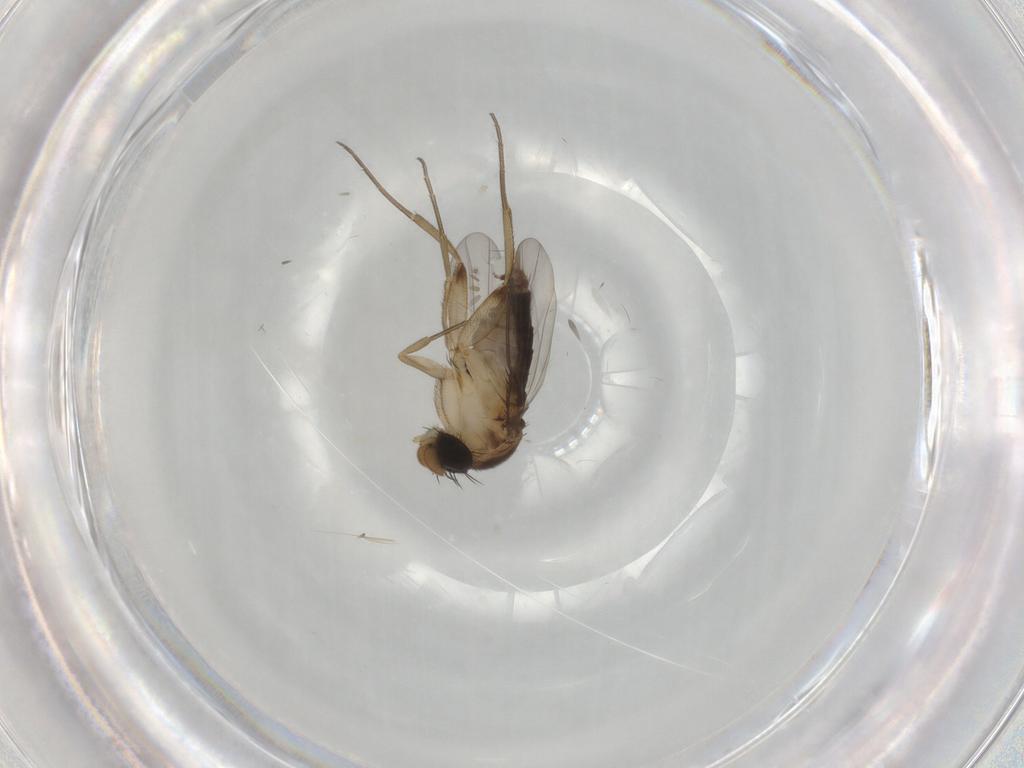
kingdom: Animalia
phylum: Arthropoda
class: Insecta
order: Diptera
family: Phoridae
